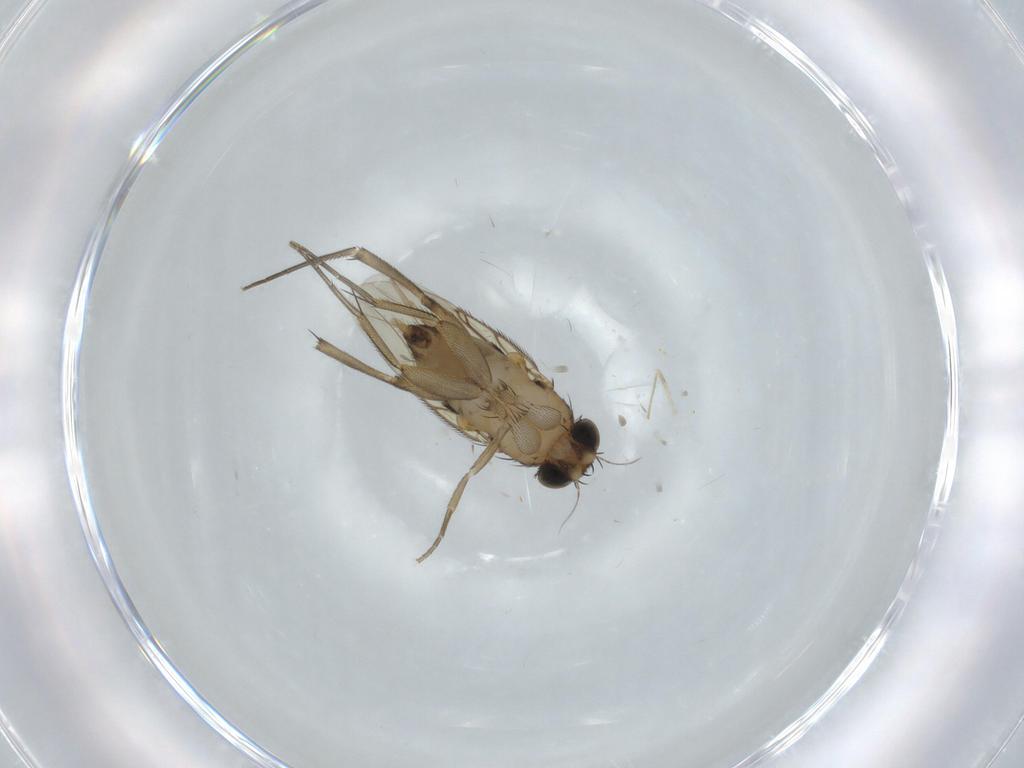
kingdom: Animalia
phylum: Arthropoda
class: Insecta
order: Diptera
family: Phoridae
